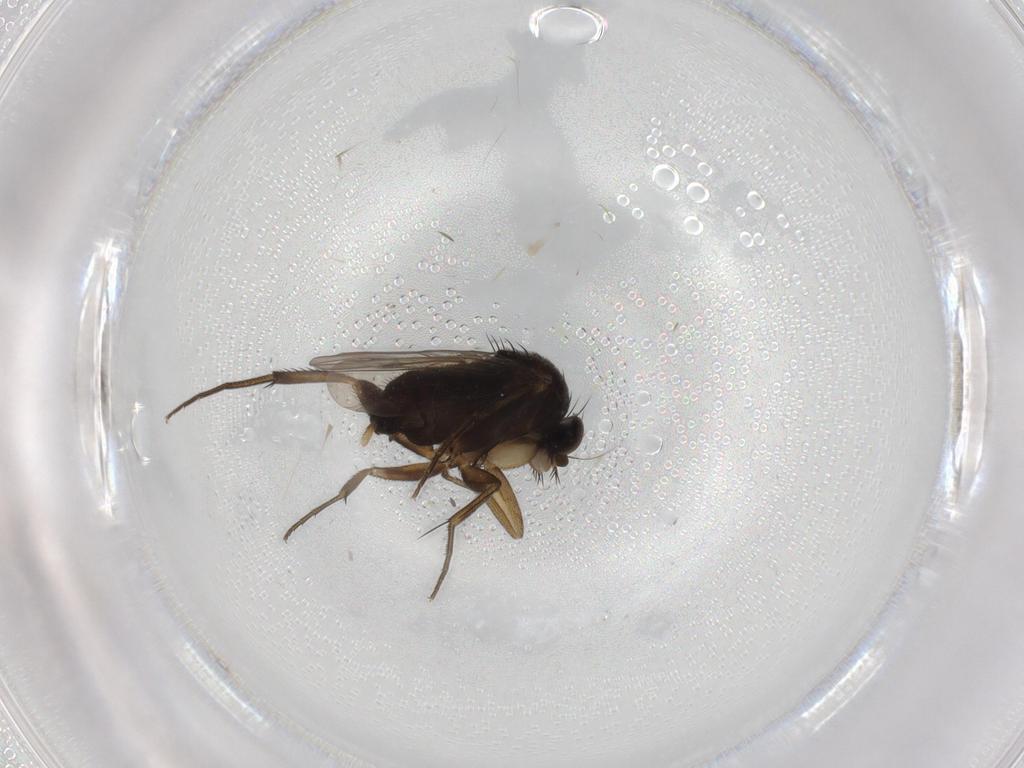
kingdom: Animalia
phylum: Arthropoda
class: Insecta
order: Diptera
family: Phoridae
